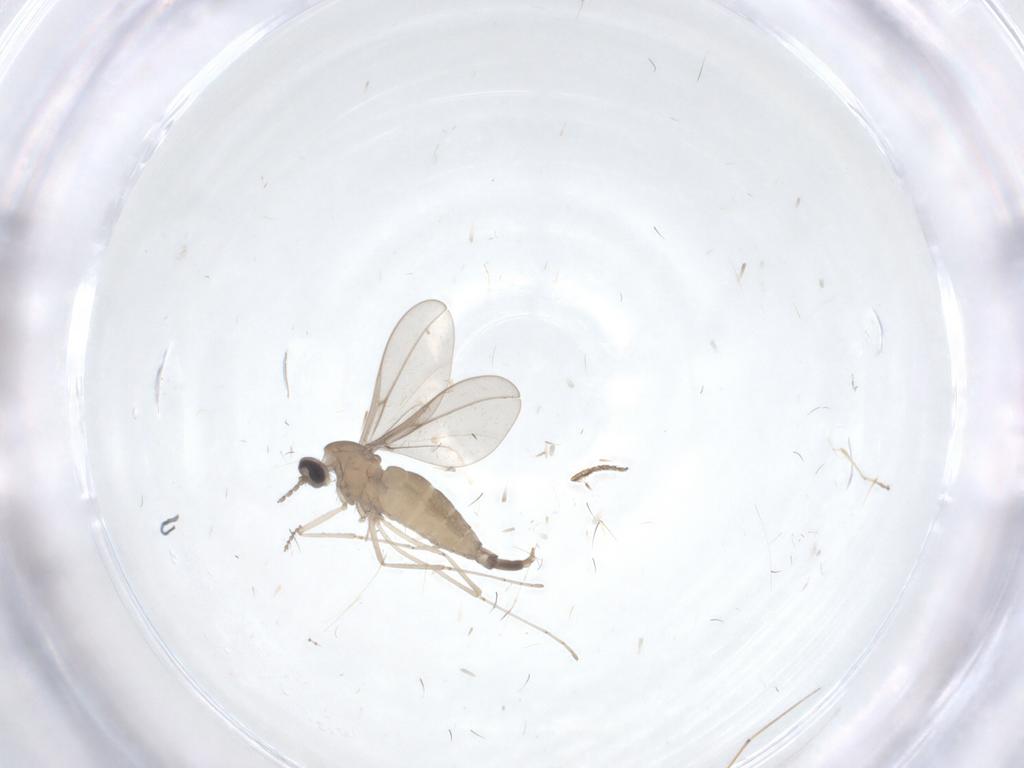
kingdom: Animalia
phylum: Arthropoda
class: Insecta
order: Diptera
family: Cecidomyiidae
